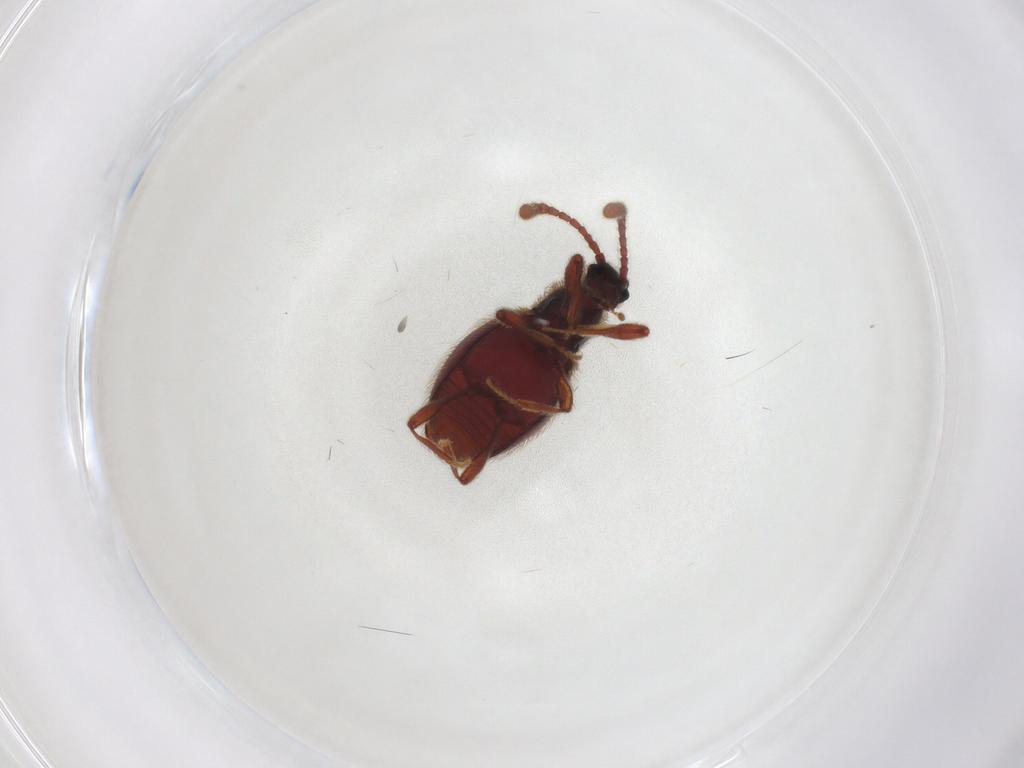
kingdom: Animalia
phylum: Arthropoda
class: Insecta
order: Coleoptera
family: Staphylinidae
